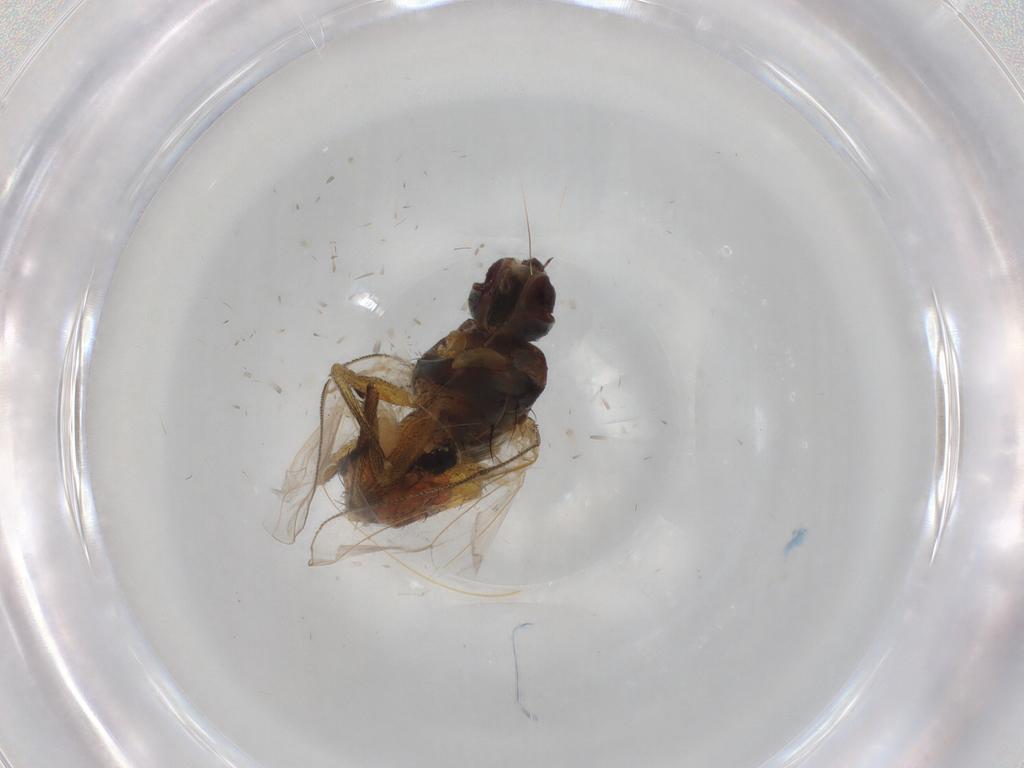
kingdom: Animalia
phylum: Arthropoda
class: Insecta
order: Diptera
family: Muscidae
